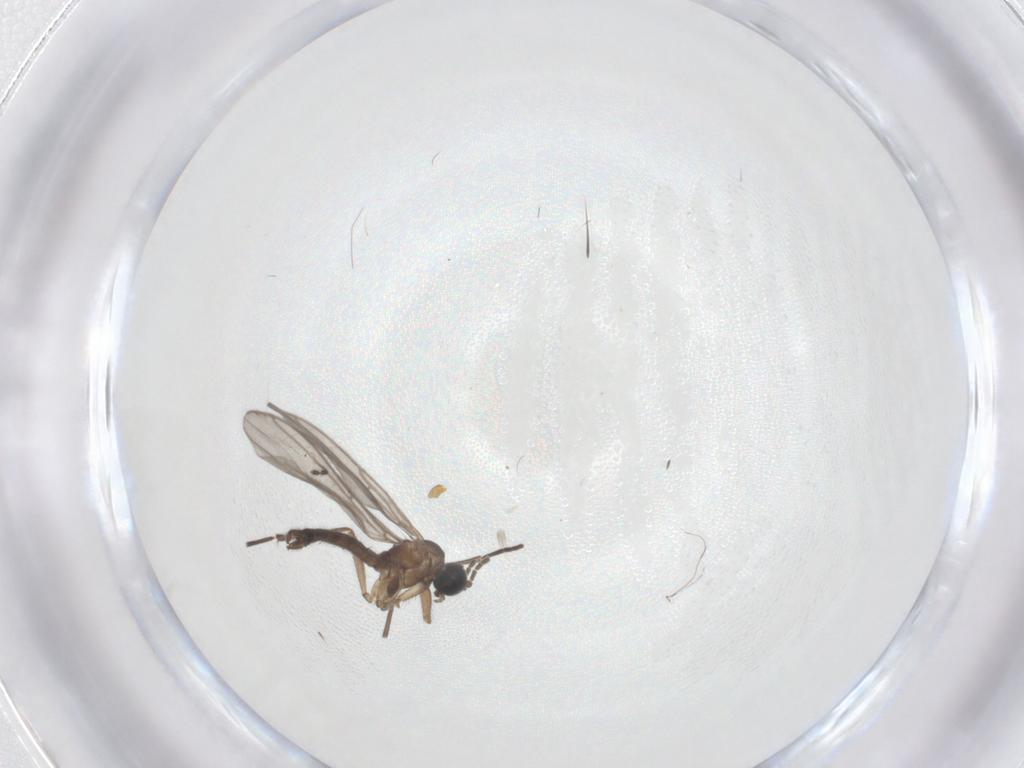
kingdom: Animalia
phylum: Arthropoda
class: Insecta
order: Diptera
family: Sciaridae
